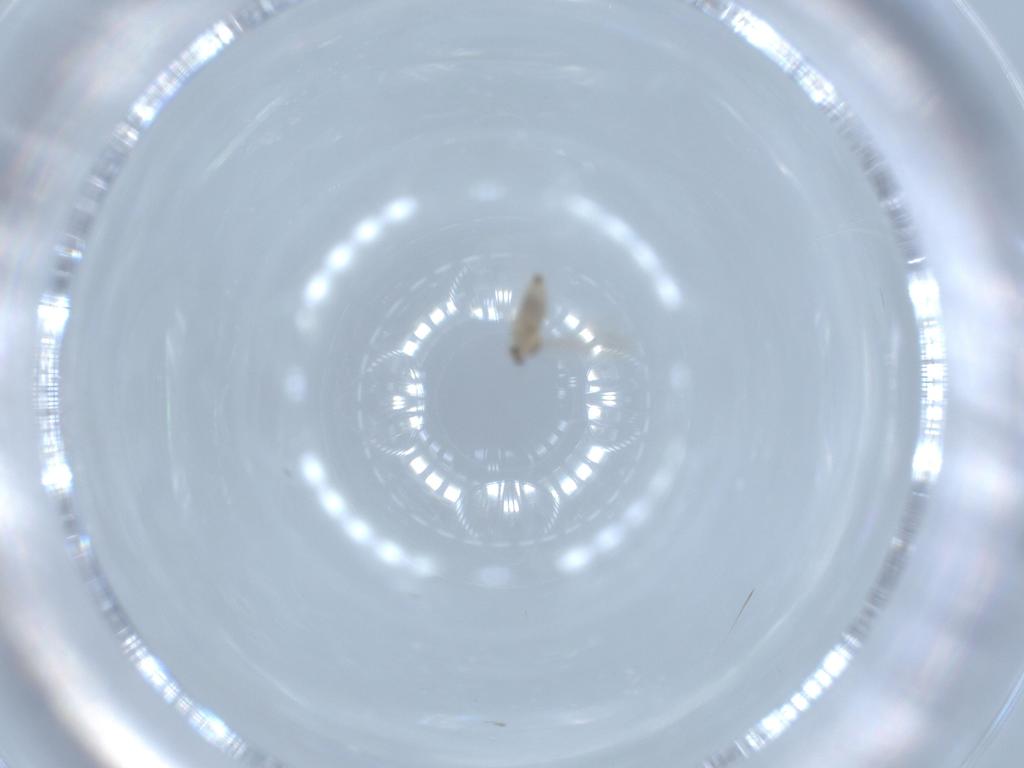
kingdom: Animalia
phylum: Arthropoda
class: Insecta
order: Diptera
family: Cecidomyiidae
